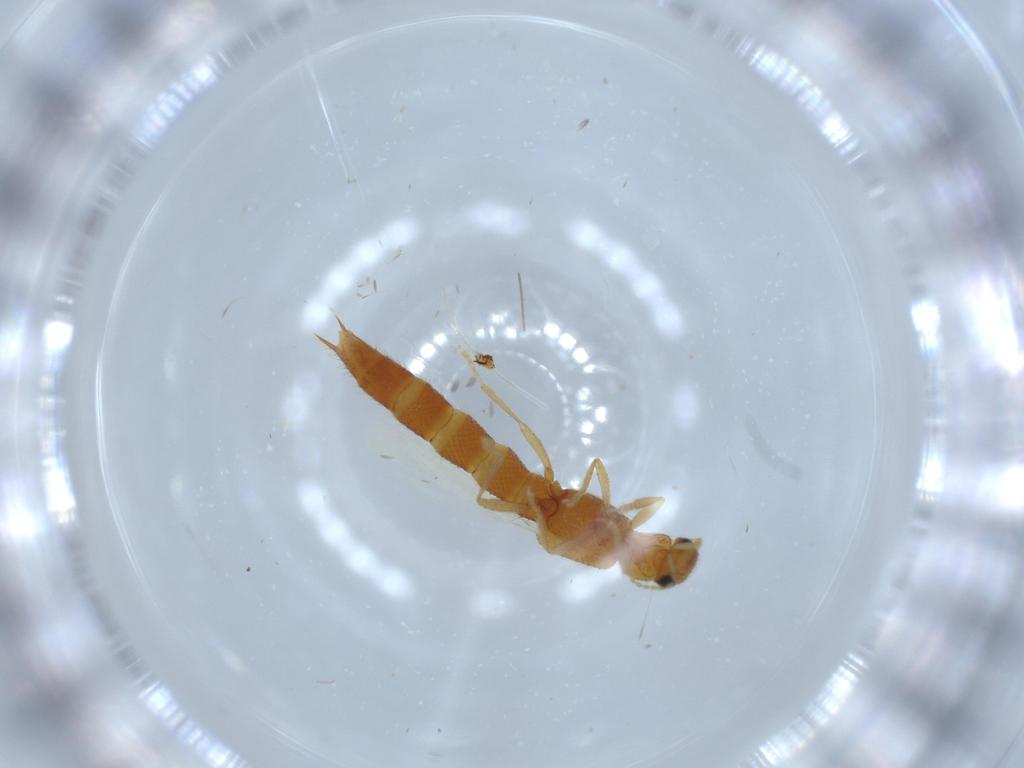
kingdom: Animalia
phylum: Arthropoda
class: Insecta
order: Coleoptera
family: Staphylinidae
